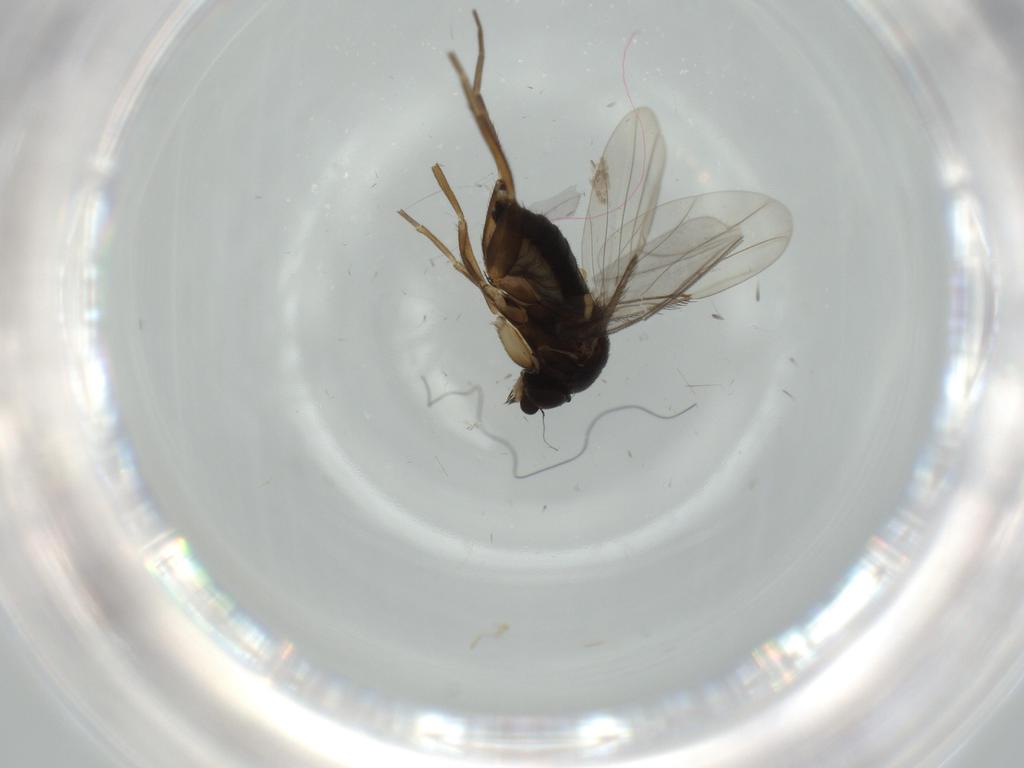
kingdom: Animalia
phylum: Arthropoda
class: Insecta
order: Diptera
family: Phoridae
